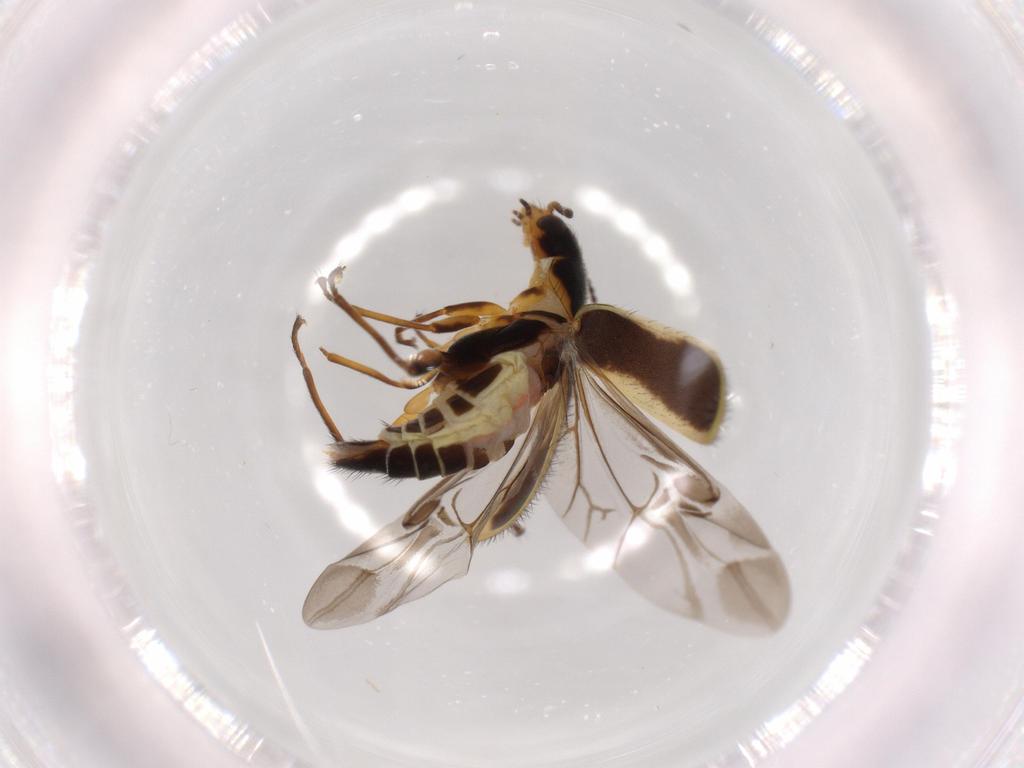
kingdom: Animalia
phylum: Arthropoda
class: Insecta
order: Coleoptera
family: Melyridae
